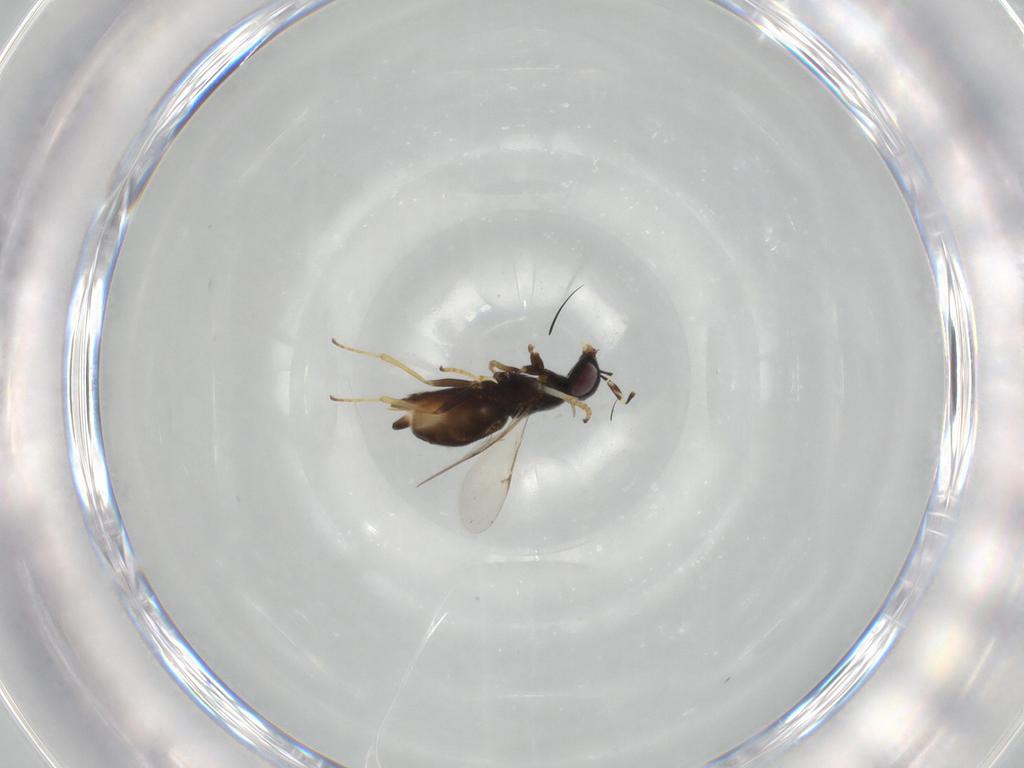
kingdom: Animalia
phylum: Arthropoda
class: Insecta
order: Hymenoptera
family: Encyrtidae
